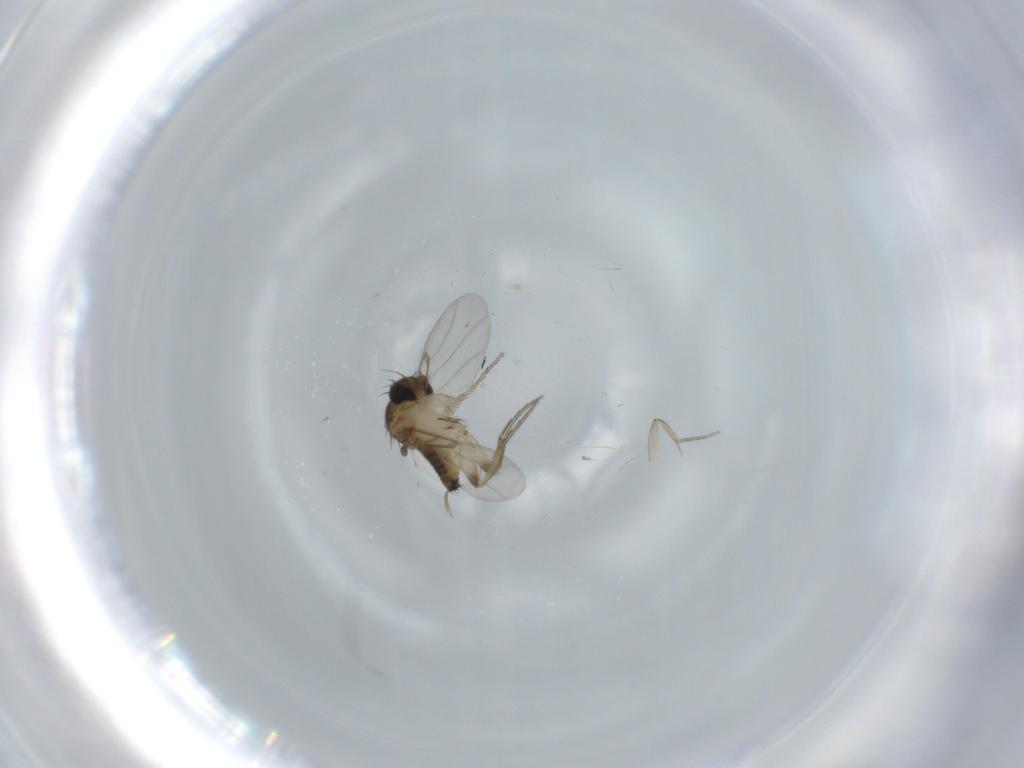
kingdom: Animalia
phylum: Arthropoda
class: Insecta
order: Diptera
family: Phoridae
